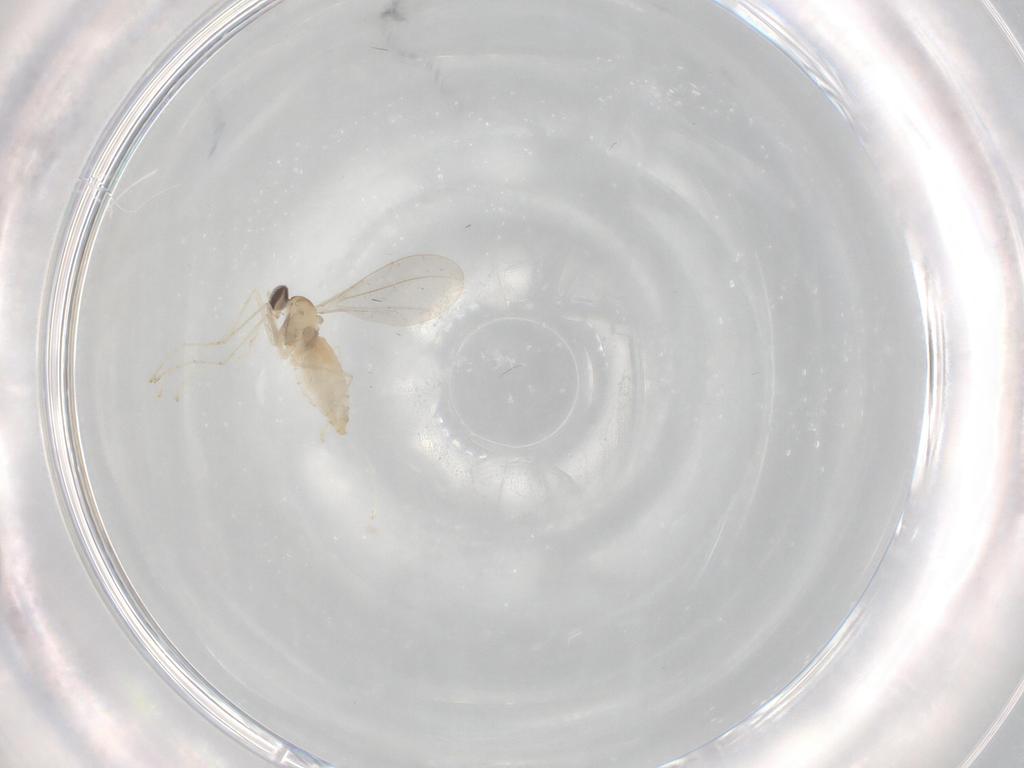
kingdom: Animalia
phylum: Arthropoda
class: Insecta
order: Diptera
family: Cecidomyiidae
